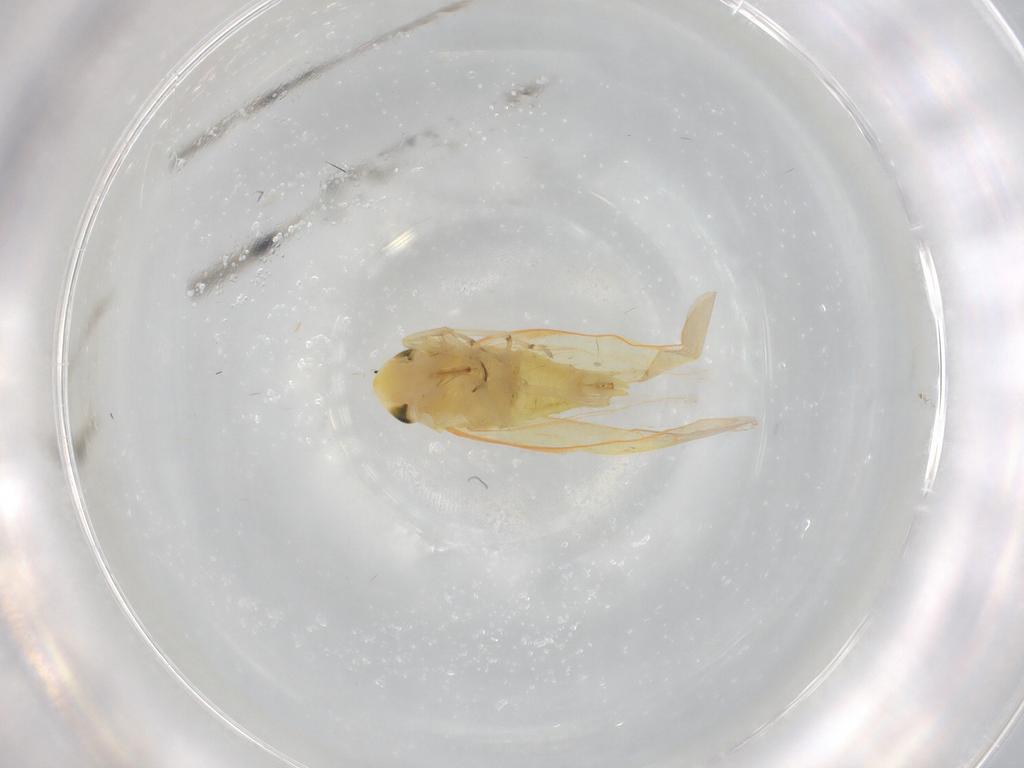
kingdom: Animalia
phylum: Arthropoda
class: Insecta
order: Hemiptera
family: Cicadellidae
